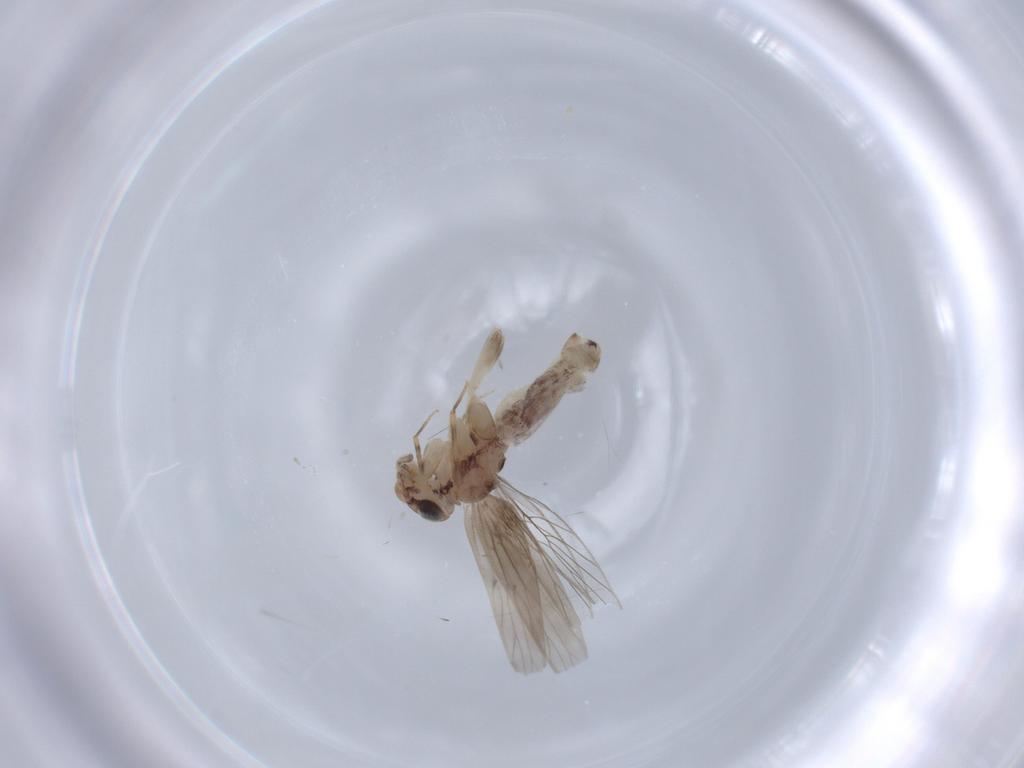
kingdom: Animalia
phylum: Arthropoda
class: Insecta
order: Psocodea
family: Lepidopsocidae
